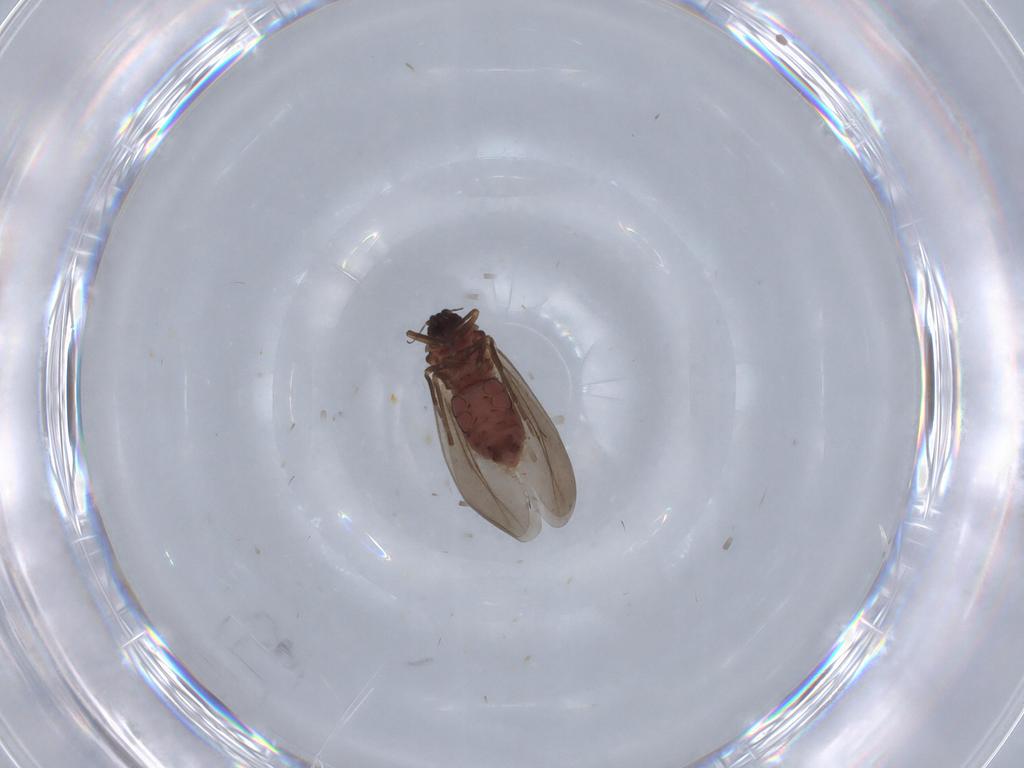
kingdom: Animalia
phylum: Arthropoda
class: Insecta
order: Hemiptera
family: Aleyrodidae
